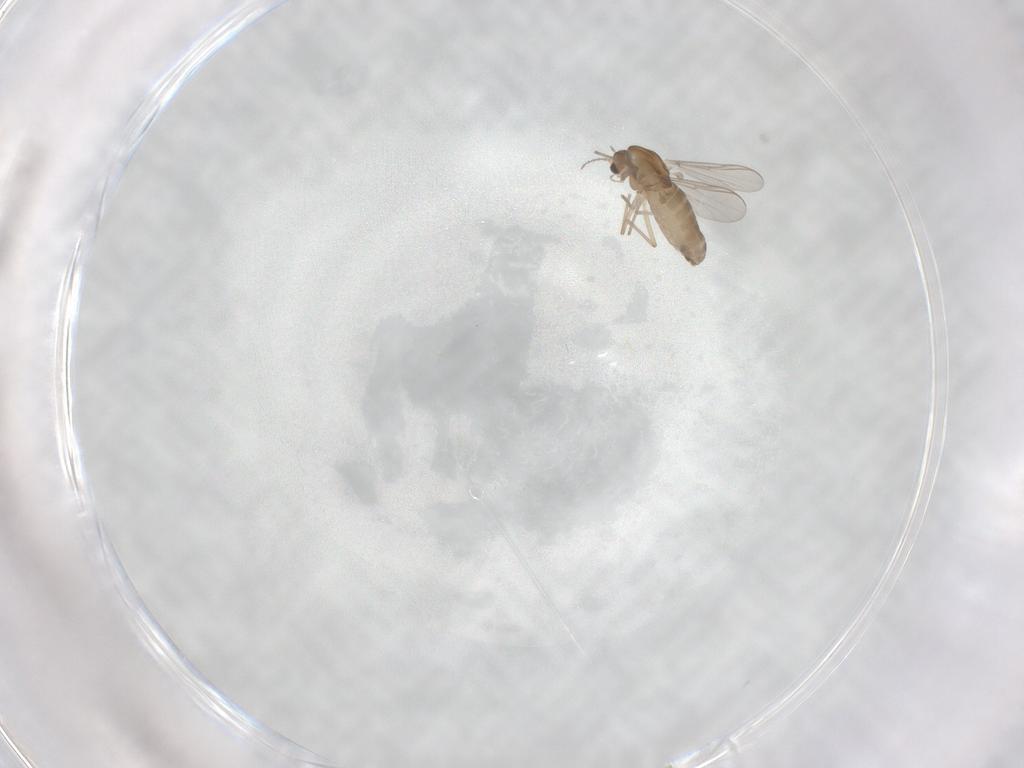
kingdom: Animalia
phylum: Arthropoda
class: Insecta
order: Diptera
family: Chironomidae
